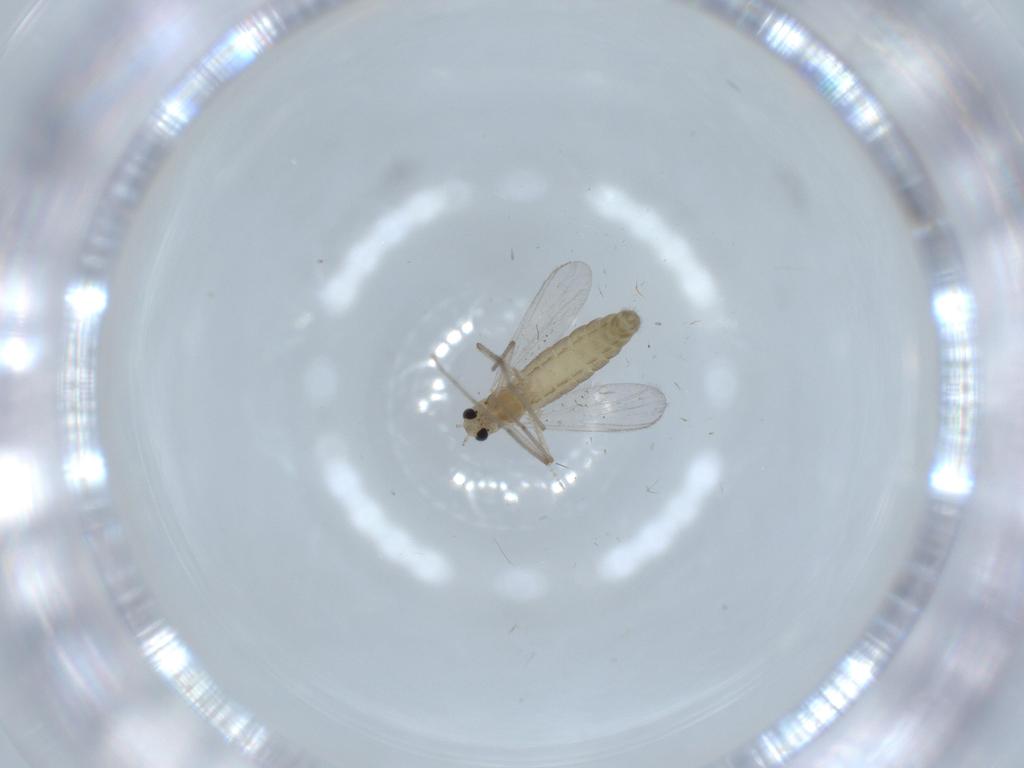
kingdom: Animalia
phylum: Arthropoda
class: Insecta
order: Diptera
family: Chironomidae
